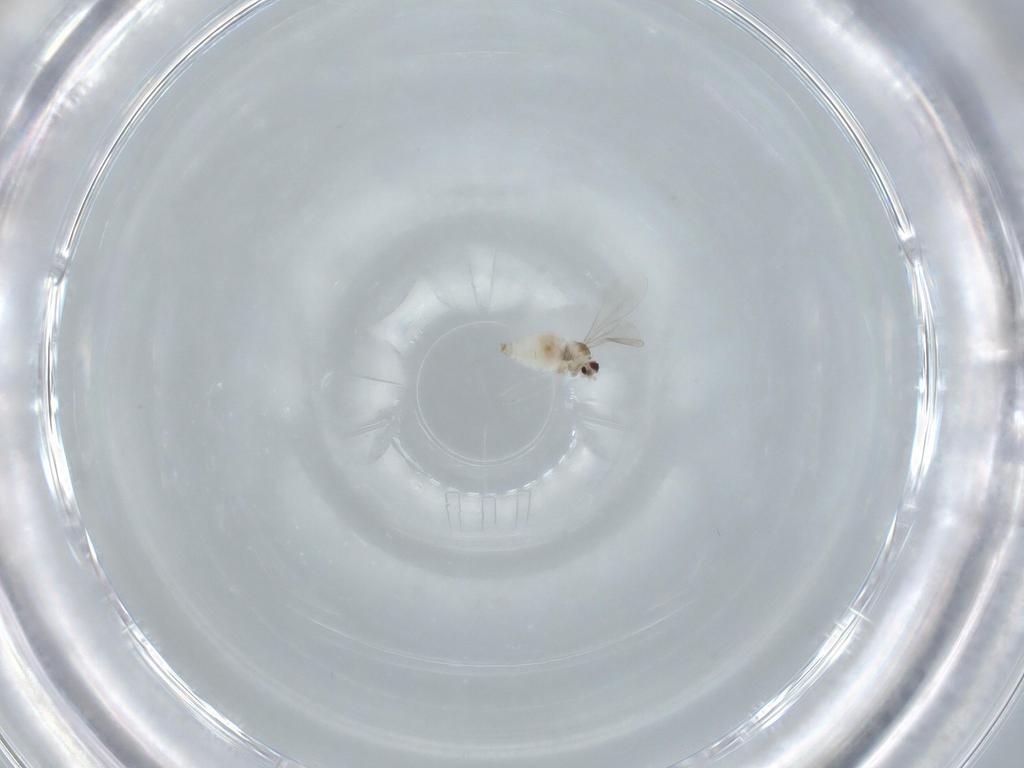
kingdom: Animalia
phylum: Arthropoda
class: Insecta
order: Diptera
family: Cecidomyiidae
